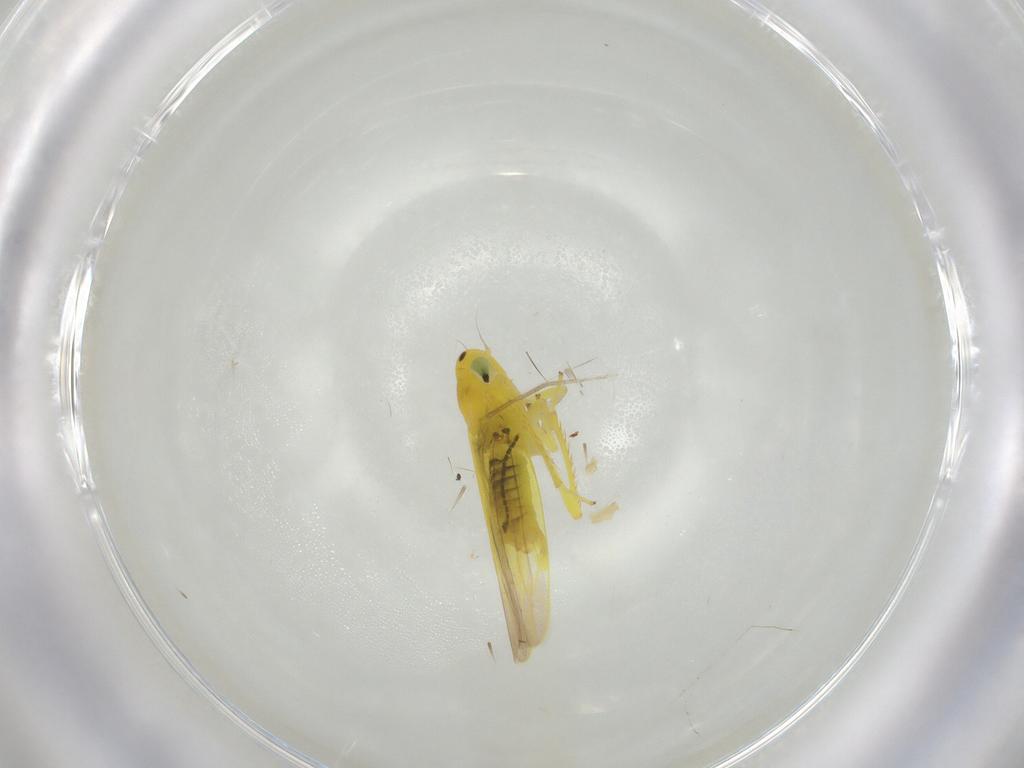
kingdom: Animalia
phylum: Arthropoda
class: Insecta
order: Hemiptera
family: Cicadellidae
